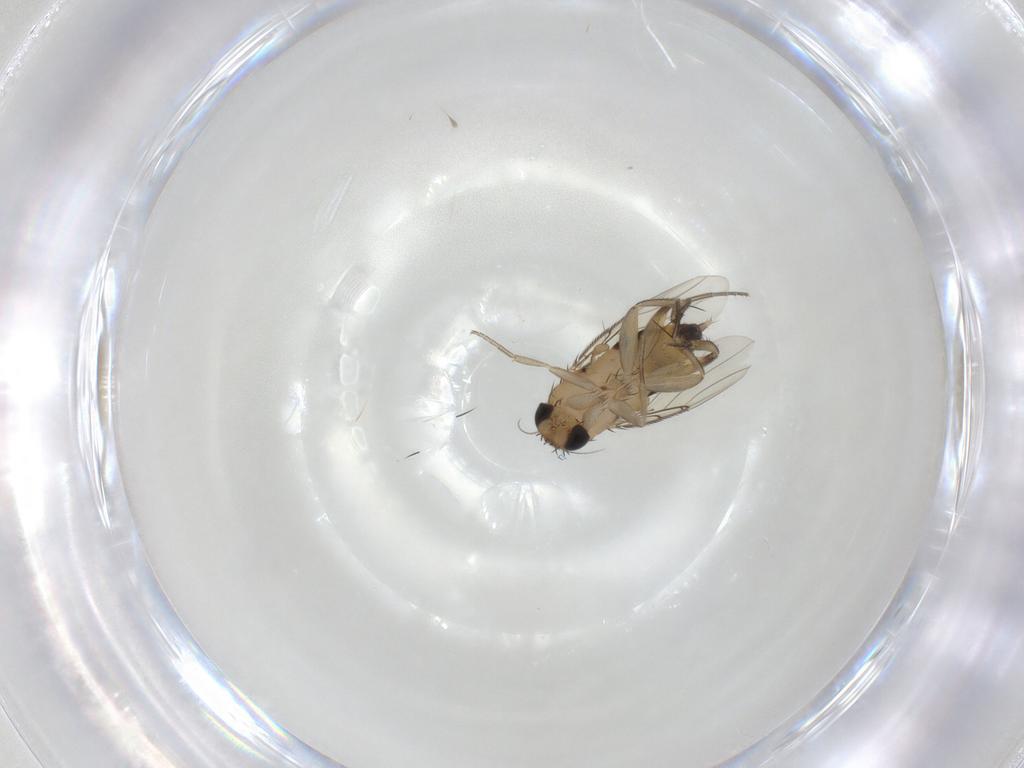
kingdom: Animalia
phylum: Arthropoda
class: Insecta
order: Diptera
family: Phoridae
